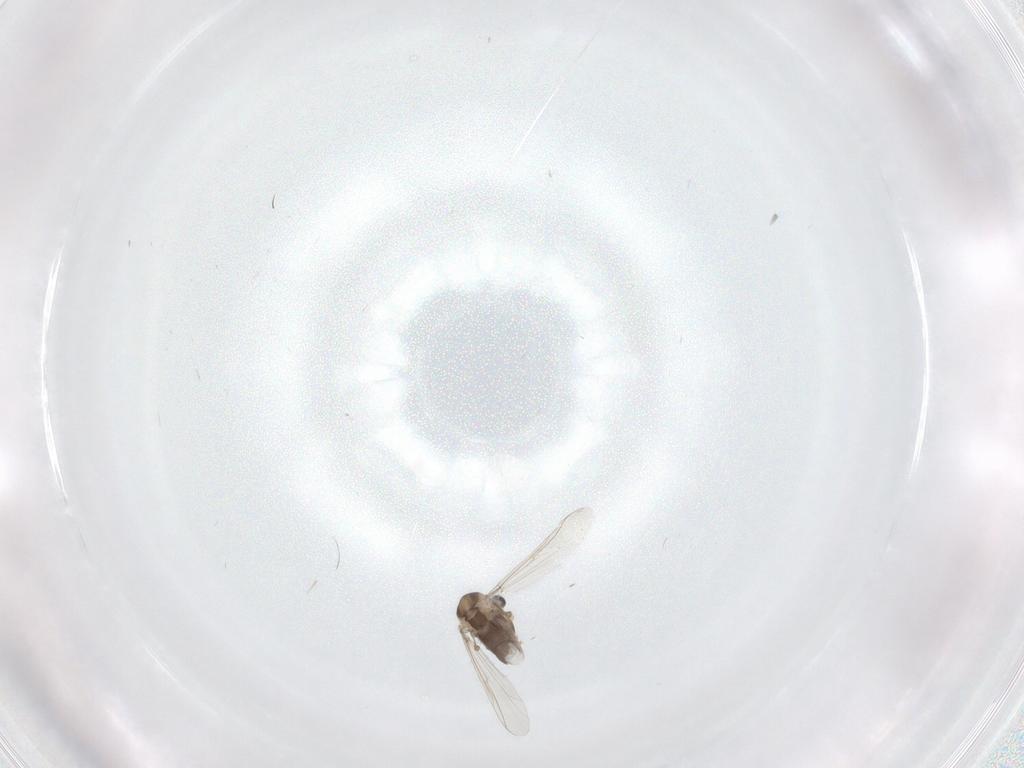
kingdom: Animalia
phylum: Arthropoda
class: Insecta
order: Diptera
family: Chironomidae
